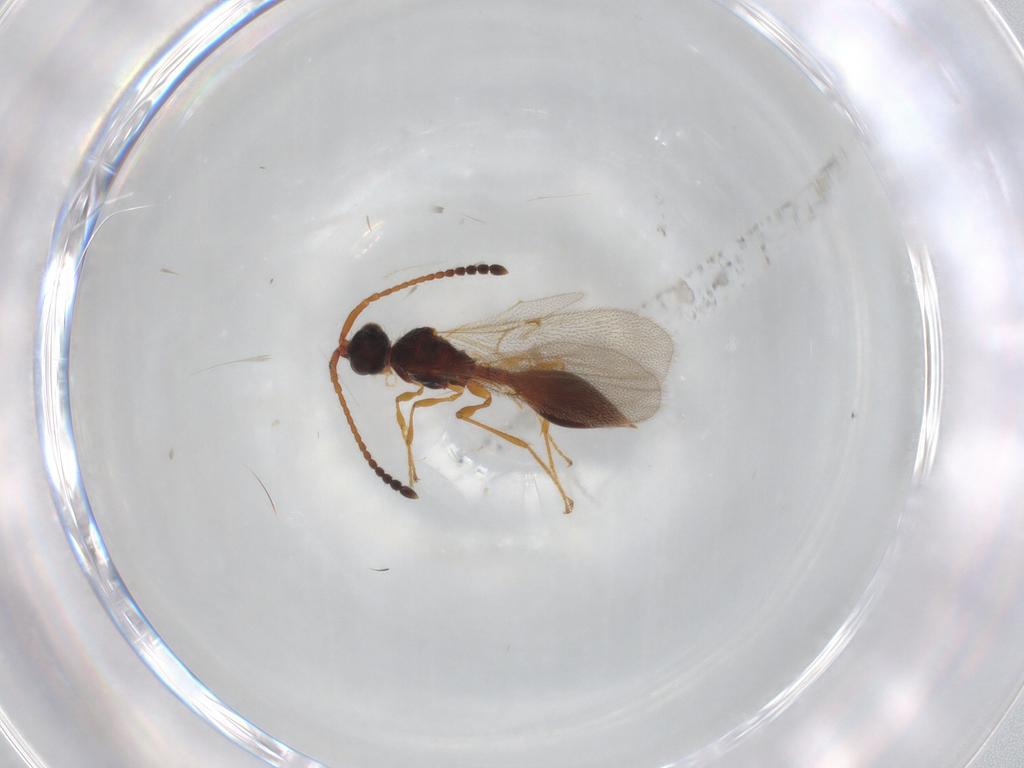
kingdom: Animalia
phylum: Arthropoda
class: Insecta
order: Hymenoptera
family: Diapriidae
